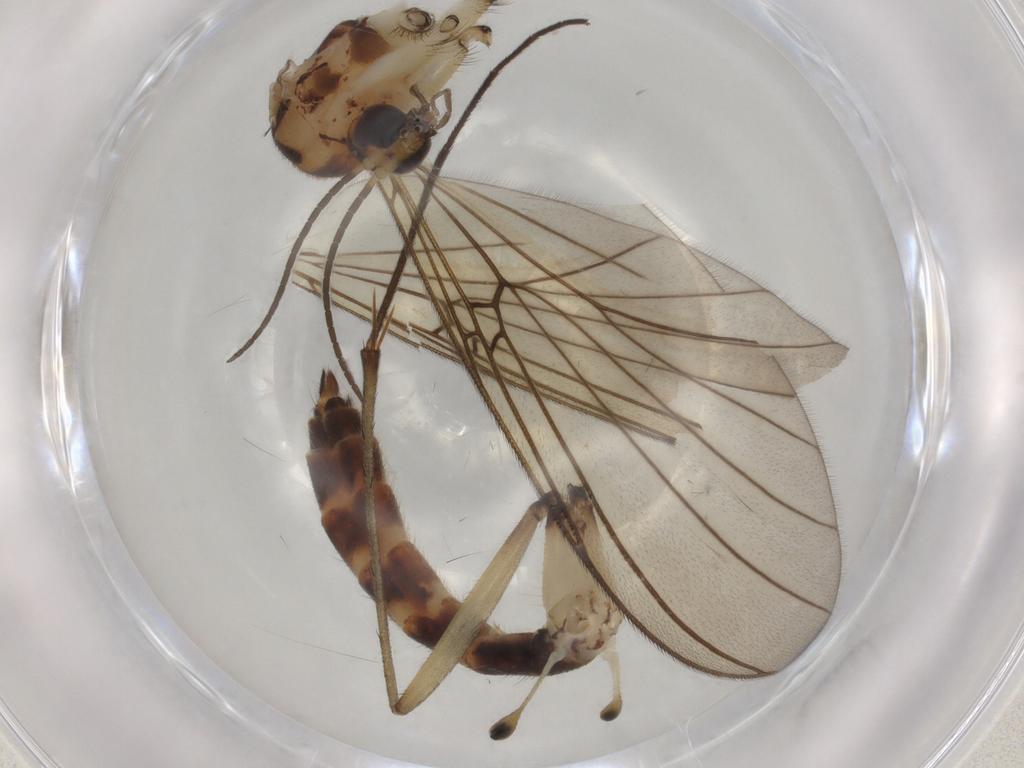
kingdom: Animalia
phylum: Arthropoda
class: Insecta
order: Diptera
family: Mycetophilidae
